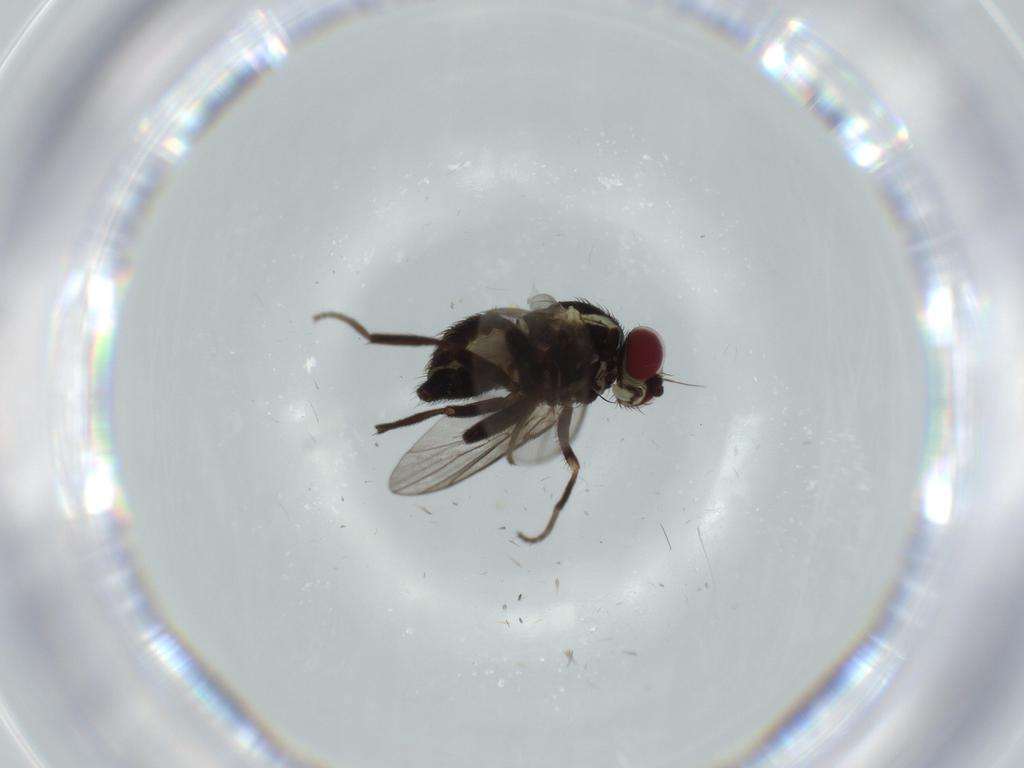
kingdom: Animalia
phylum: Arthropoda
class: Insecta
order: Diptera
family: Agromyzidae
